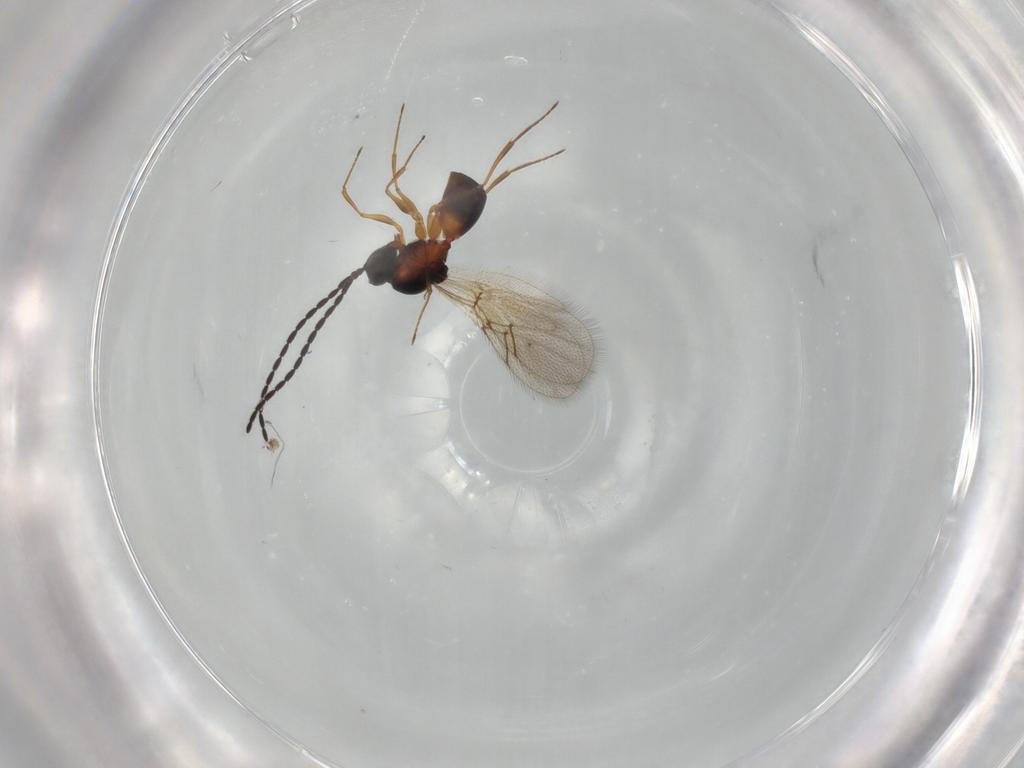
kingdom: Animalia
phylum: Arthropoda
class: Insecta
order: Hymenoptera
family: Figitidae
